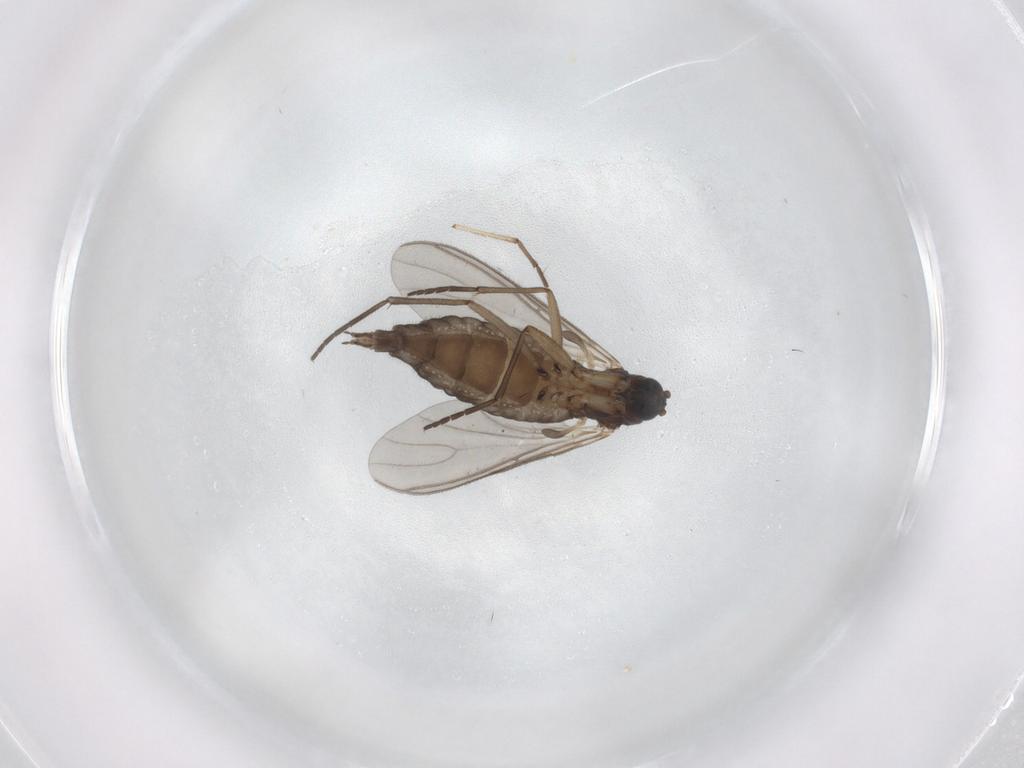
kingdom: Animalia
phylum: Arthropoda
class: Insecta
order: Diptera
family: Sciaridae
